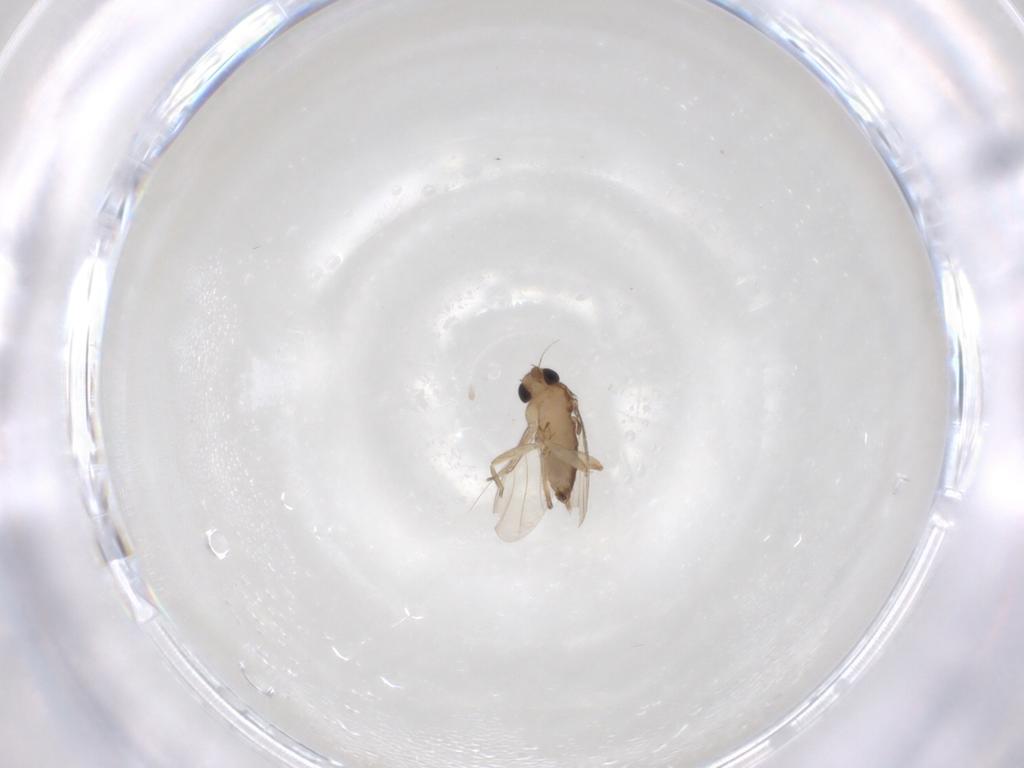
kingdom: Animalia
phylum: Arthropoda
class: Insecta
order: Diptera
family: Phoridae
